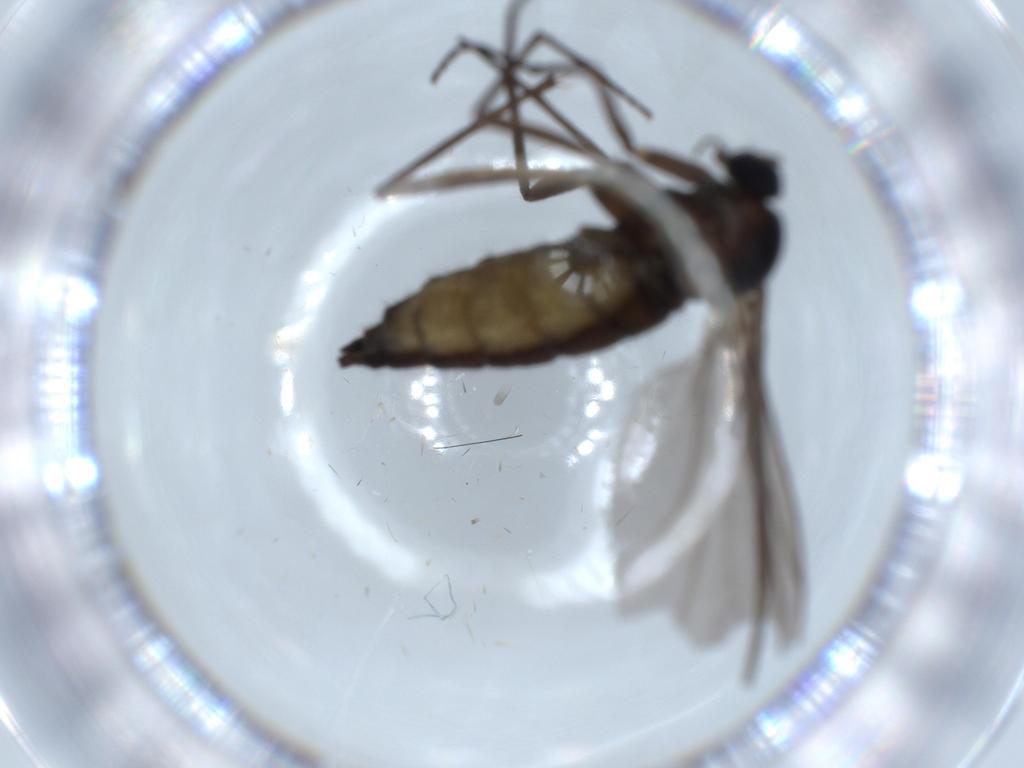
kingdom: Animalia
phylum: Arthropoda
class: Insecta
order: Diptera
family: Sciaridae
